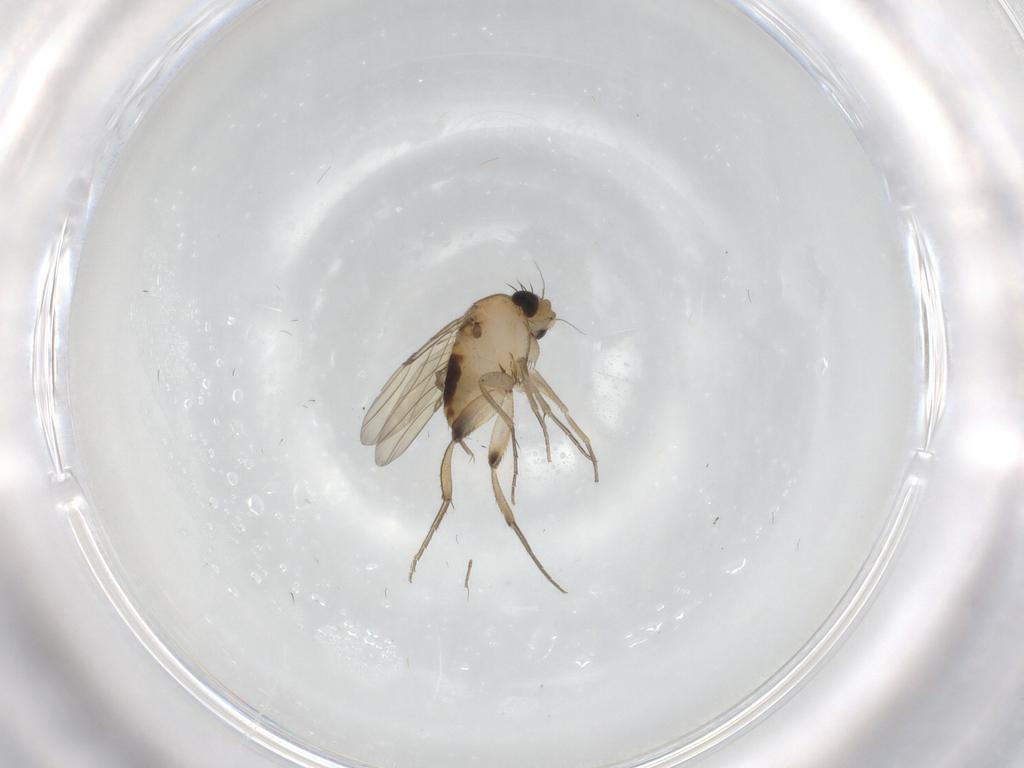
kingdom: Animalia
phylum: Arthropoda
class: Insecta
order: Diptera
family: Phoridae
